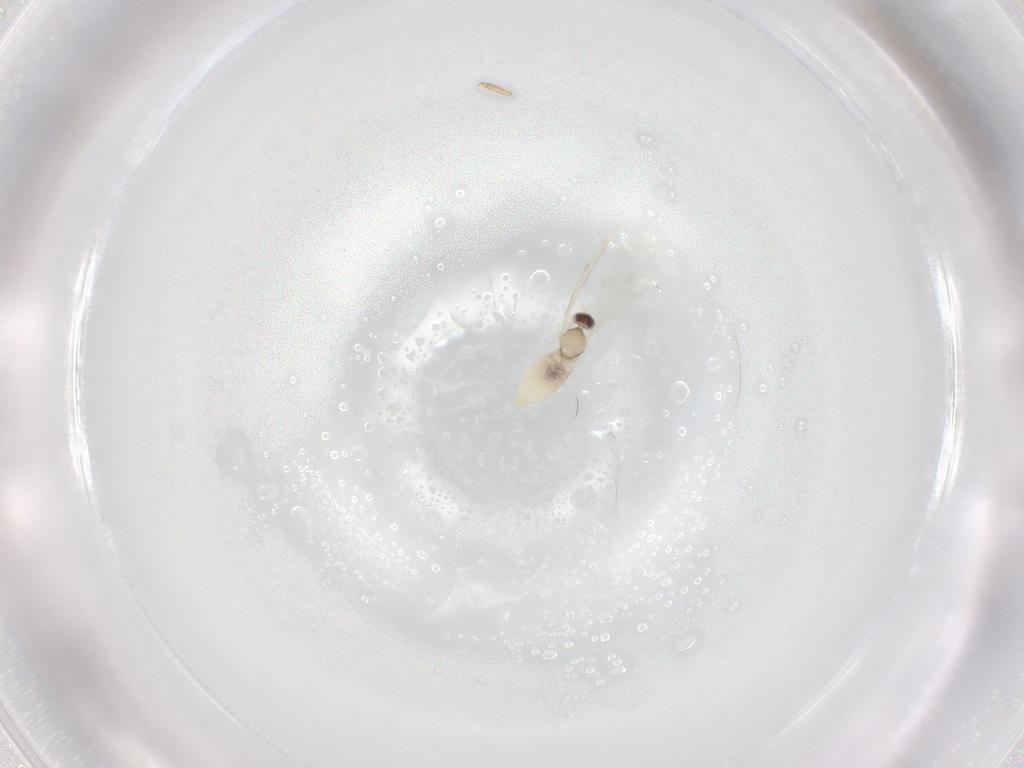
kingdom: Animalia
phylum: Arthropoda
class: Insecta
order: Diptera
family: Cecidomyiidae
